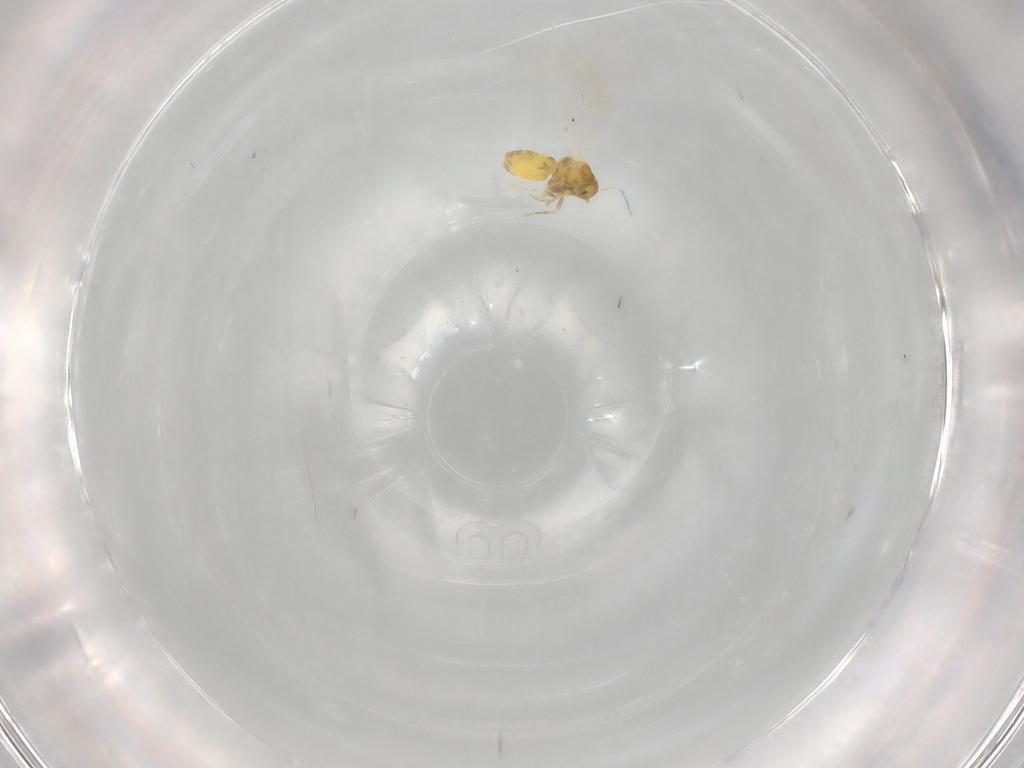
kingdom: Animalia
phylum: Arthropoda
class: Insecta
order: Hemiptera
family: Aleyrodidae
